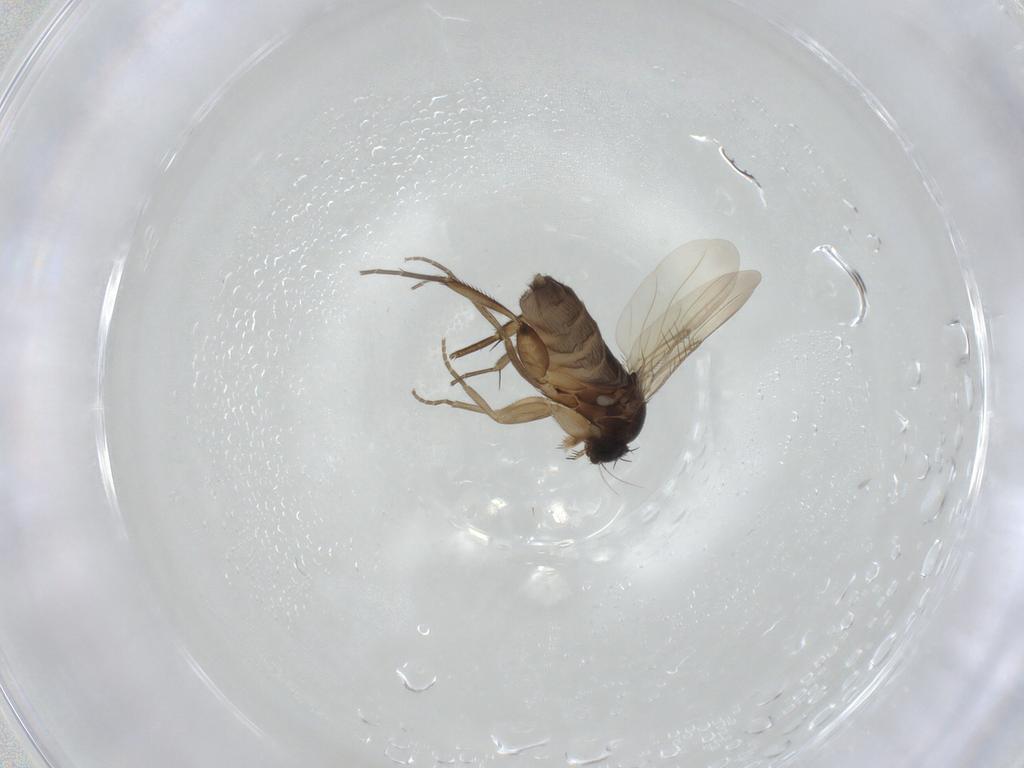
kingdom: Animalia
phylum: Arthropoda
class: Insecta
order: Diptera
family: Phoridae
